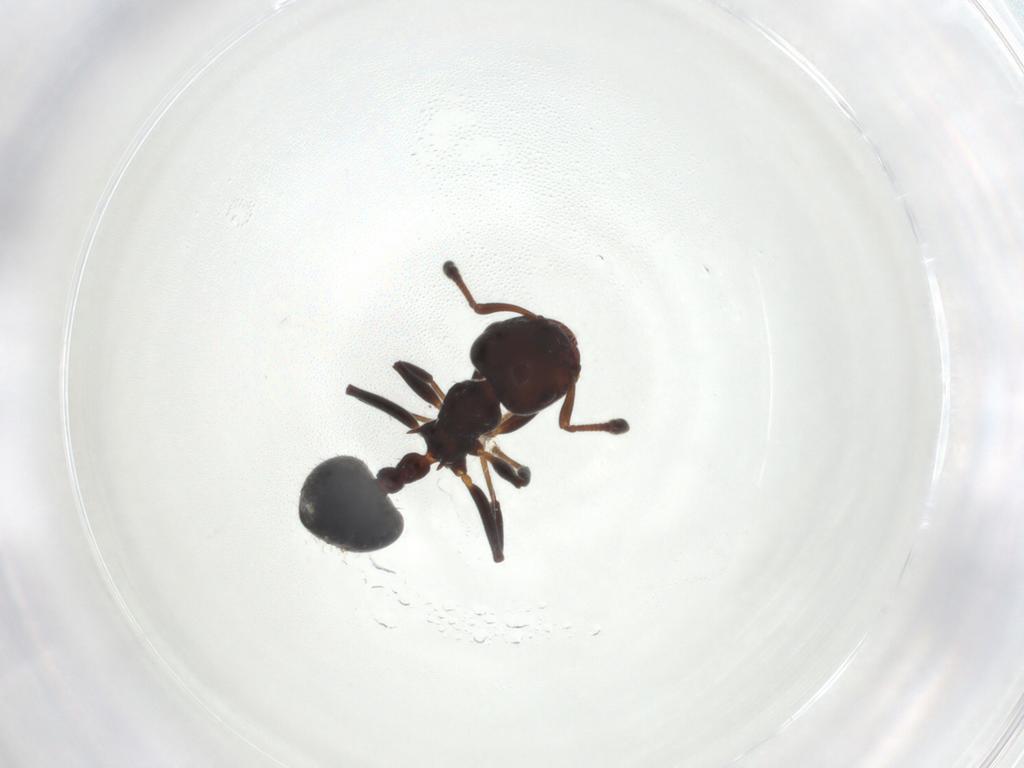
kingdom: Animalia
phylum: Arthropoda
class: Insecta
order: Hymenoptera
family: Formicidae
